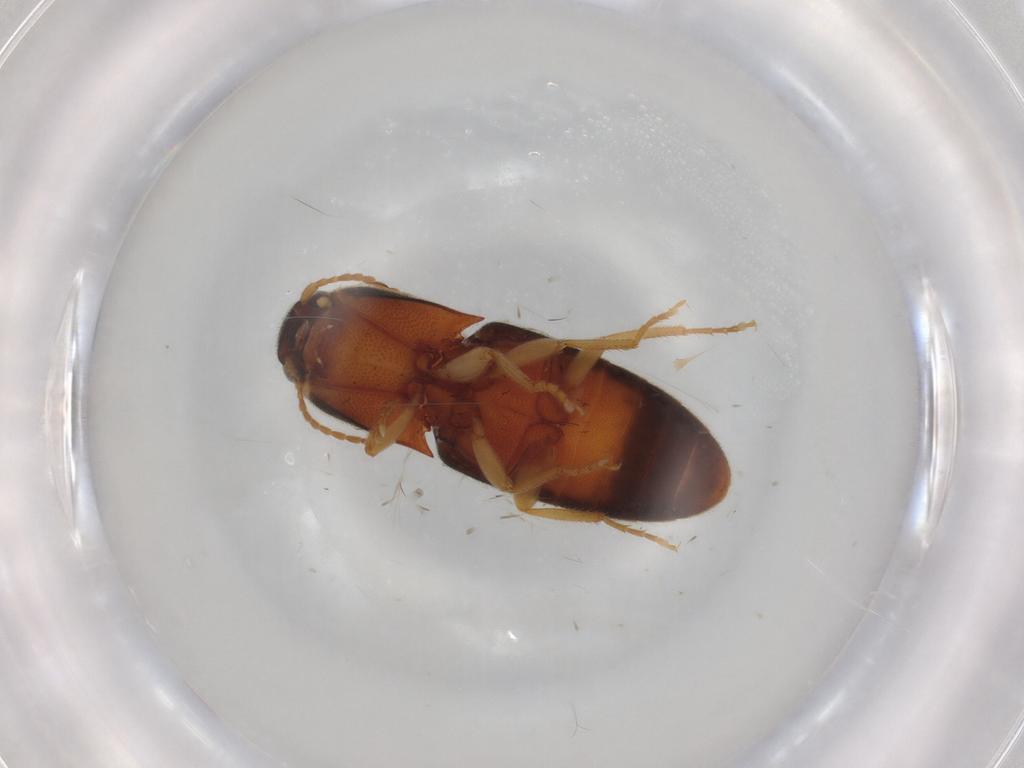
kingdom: Animalia
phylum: Arthropoda
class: Insecta
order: Coleoptera
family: Elateridae
